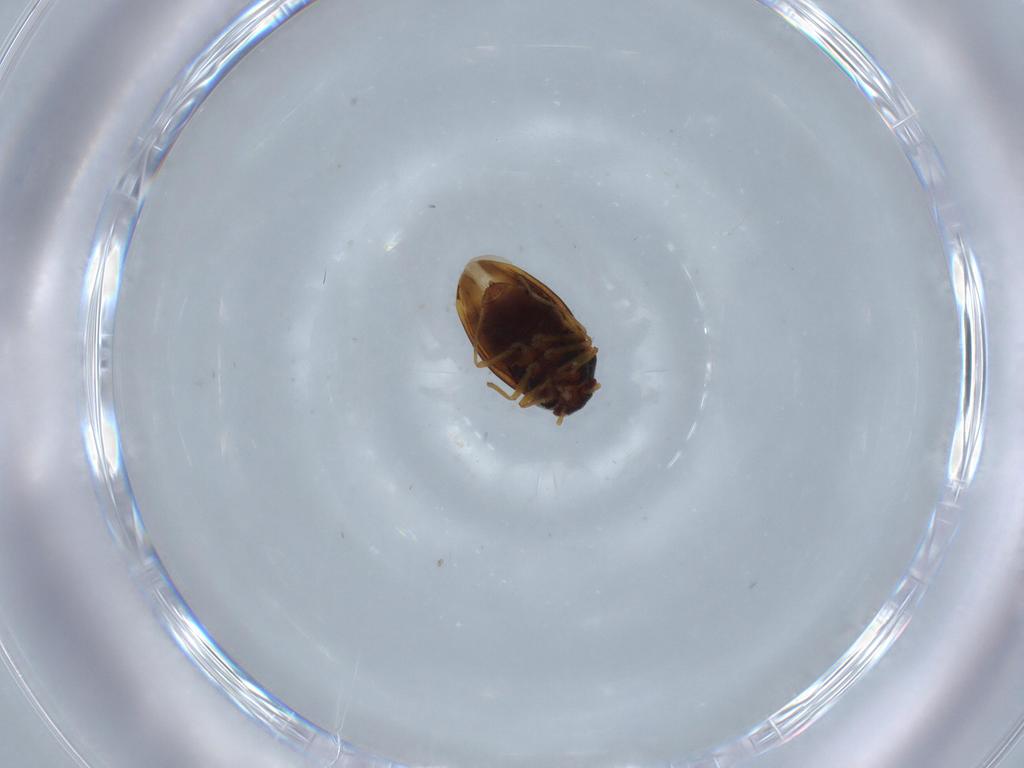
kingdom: Animalia
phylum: Arthropoda
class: Insecta
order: Hemiptera
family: Schizopteridae
